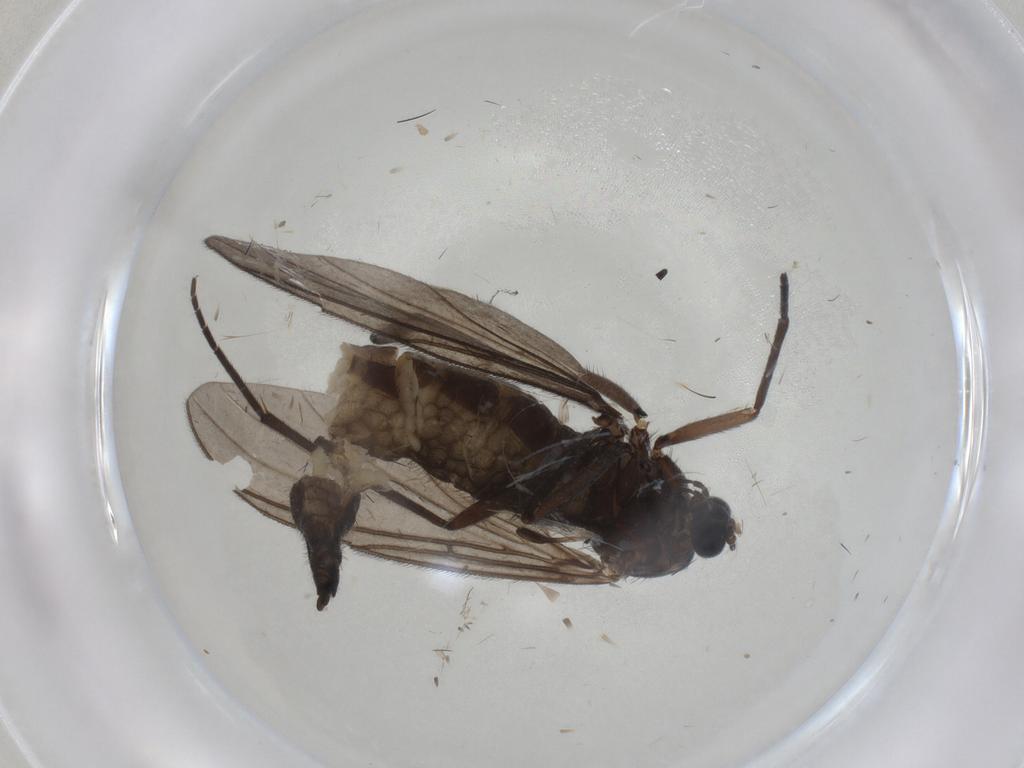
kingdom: Animalia
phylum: Arthropoda
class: Insecta
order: Diptera
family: Sciaridae
